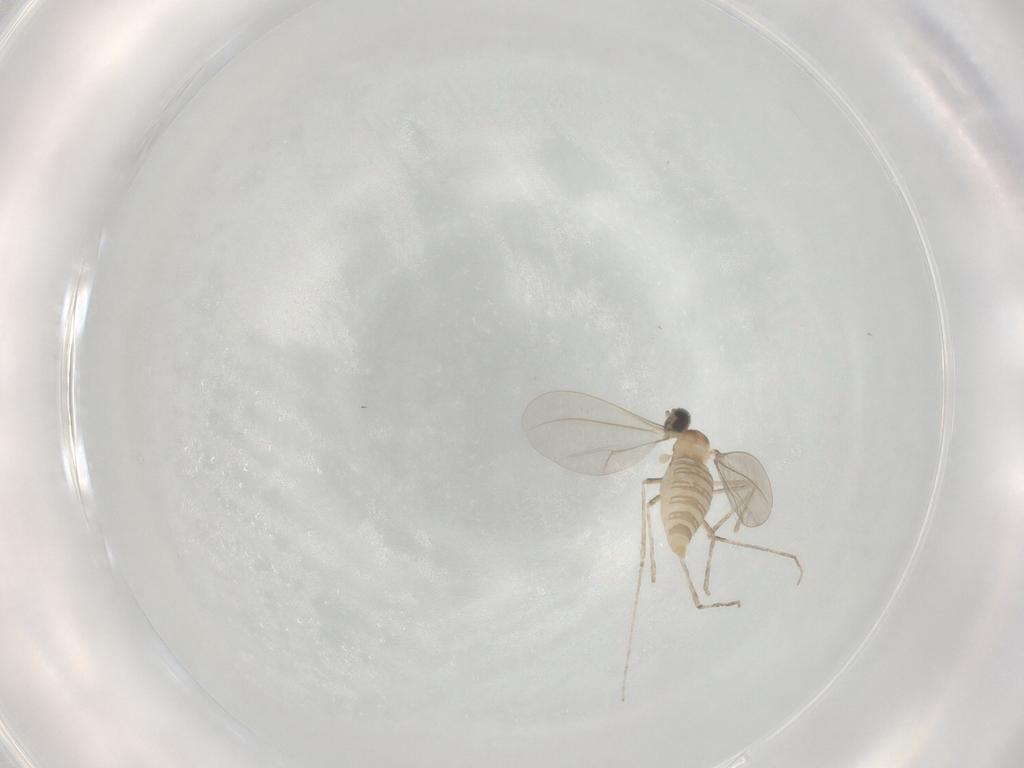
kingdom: Animalia
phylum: Arthropoda
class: Insecta
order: Diptera
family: Cecidomyiidae
